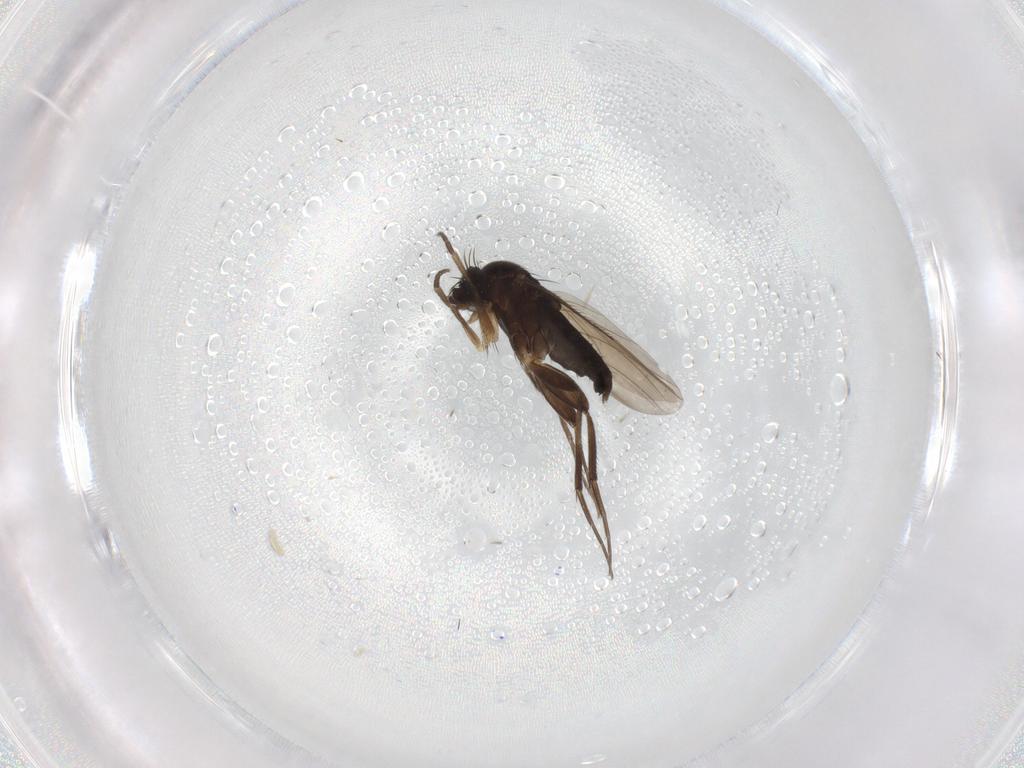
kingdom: Animalia
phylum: Arthropoda
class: Insecta
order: Diptera
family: Phoridae
